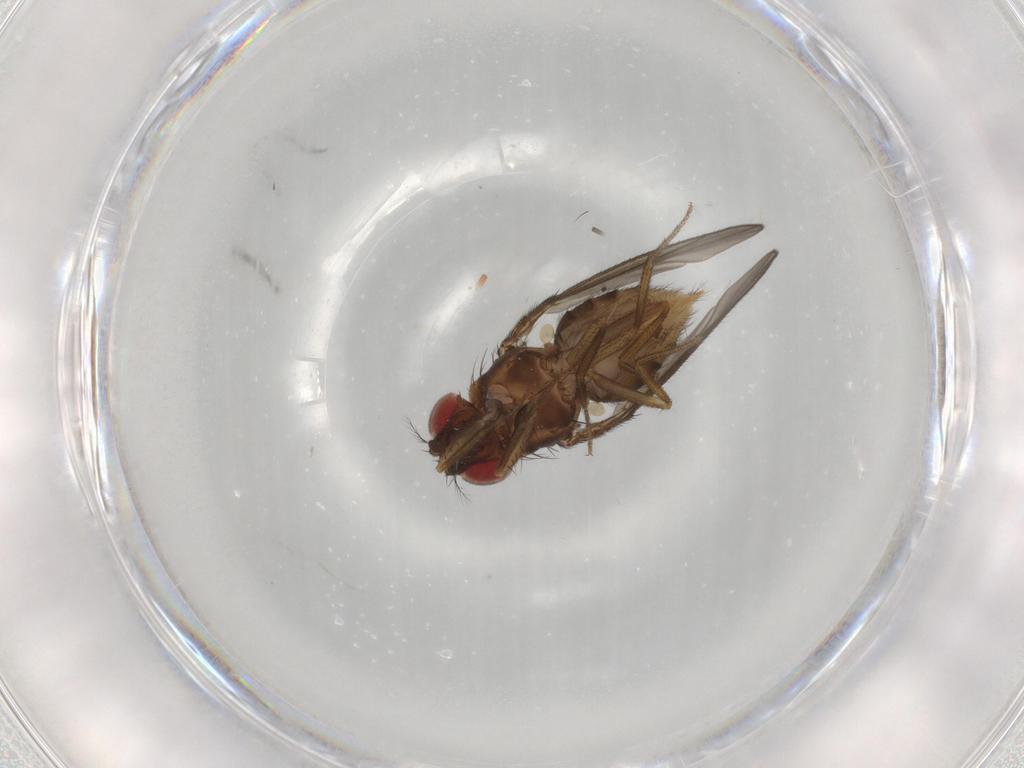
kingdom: Animalia
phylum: Arthropoda
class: Insecta
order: Diptera
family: Drosophilidae
